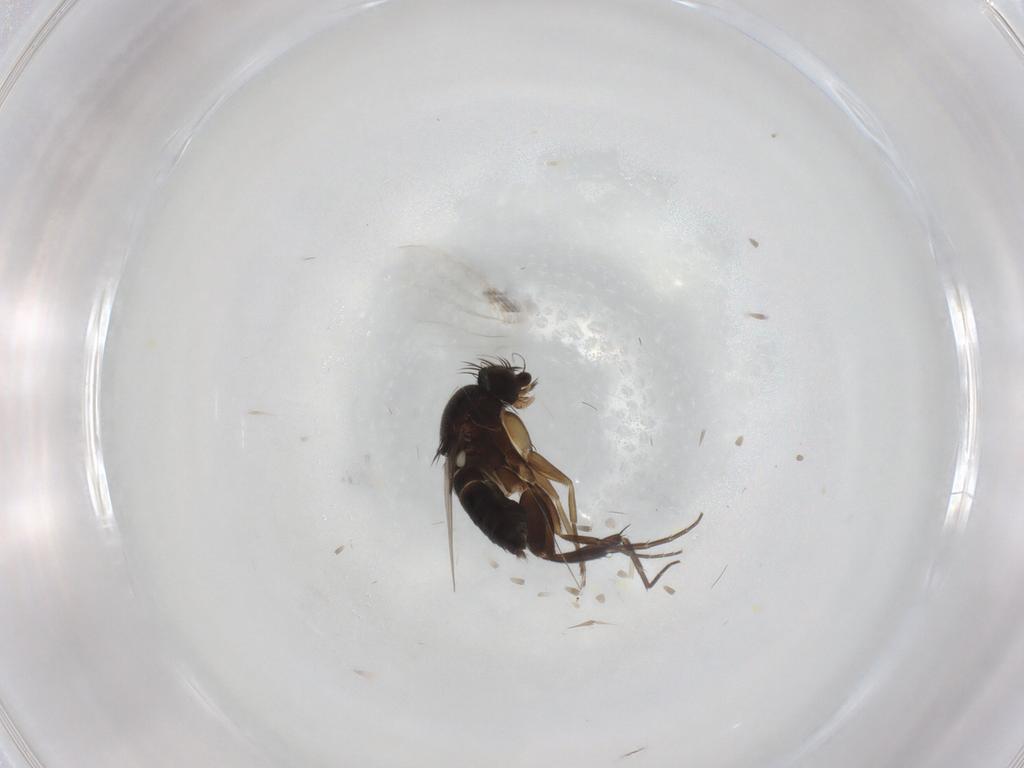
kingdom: Animalia
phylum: Arthropoda
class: Insecta
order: Diptera
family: Phoridae
